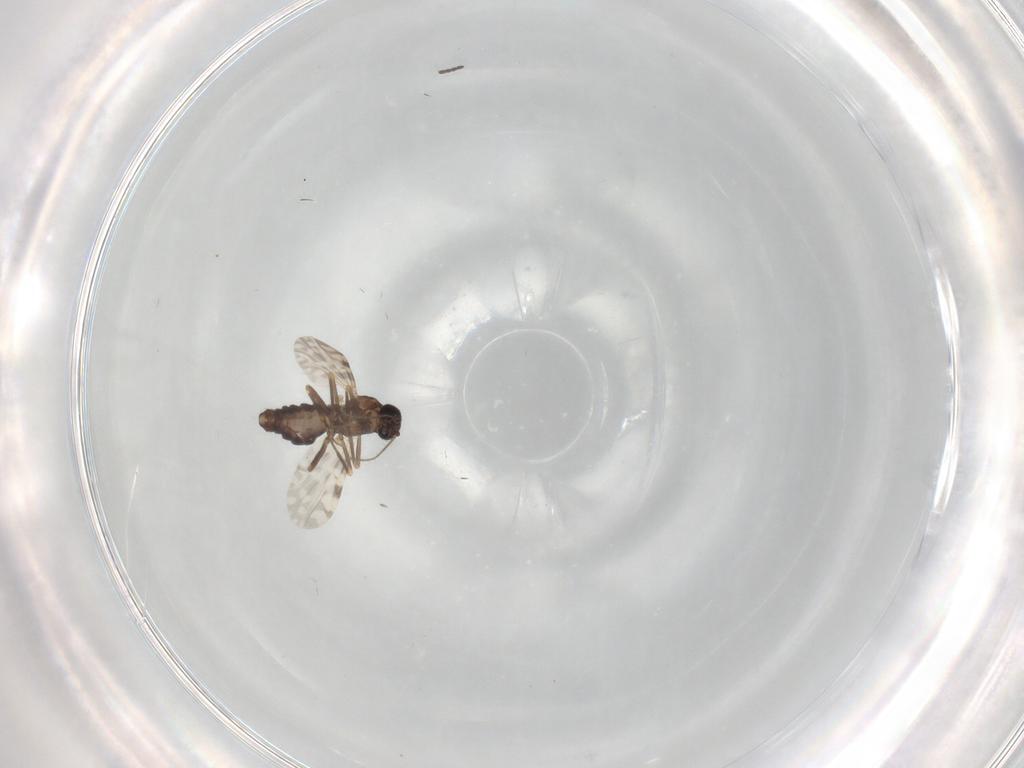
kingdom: Animalia
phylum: Arthropoda
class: Insecta
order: Diptera
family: Ceratopogonidae
